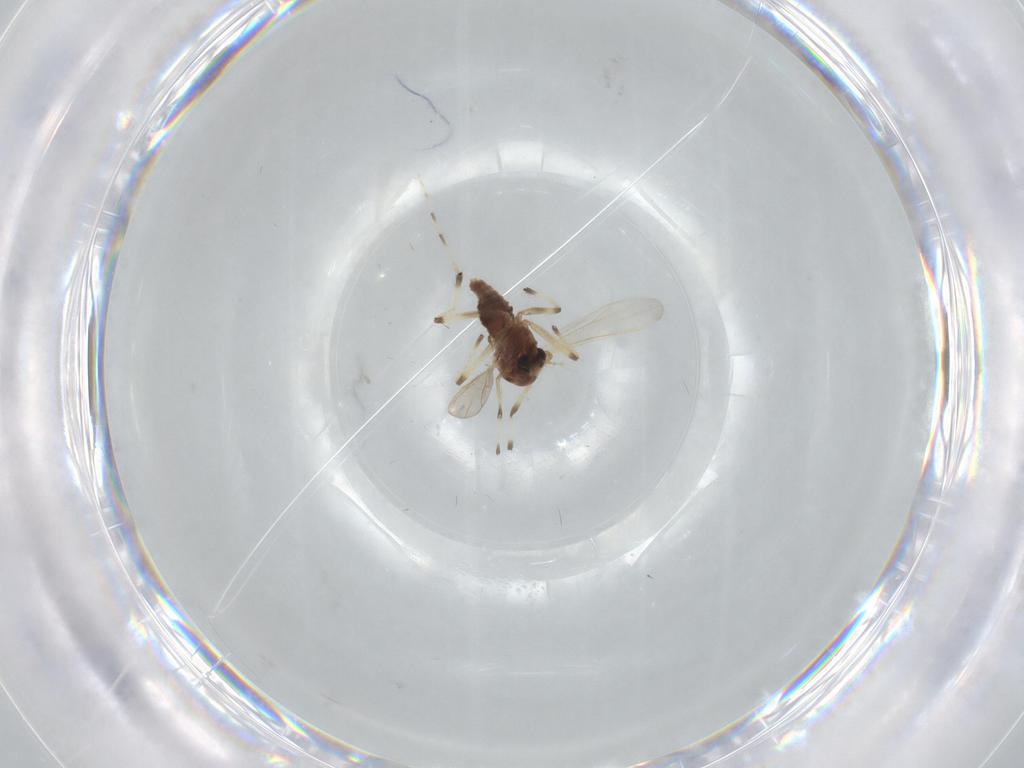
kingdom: Animalia
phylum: Arthropoda
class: Insecta
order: Diptera
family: Chironomidae
